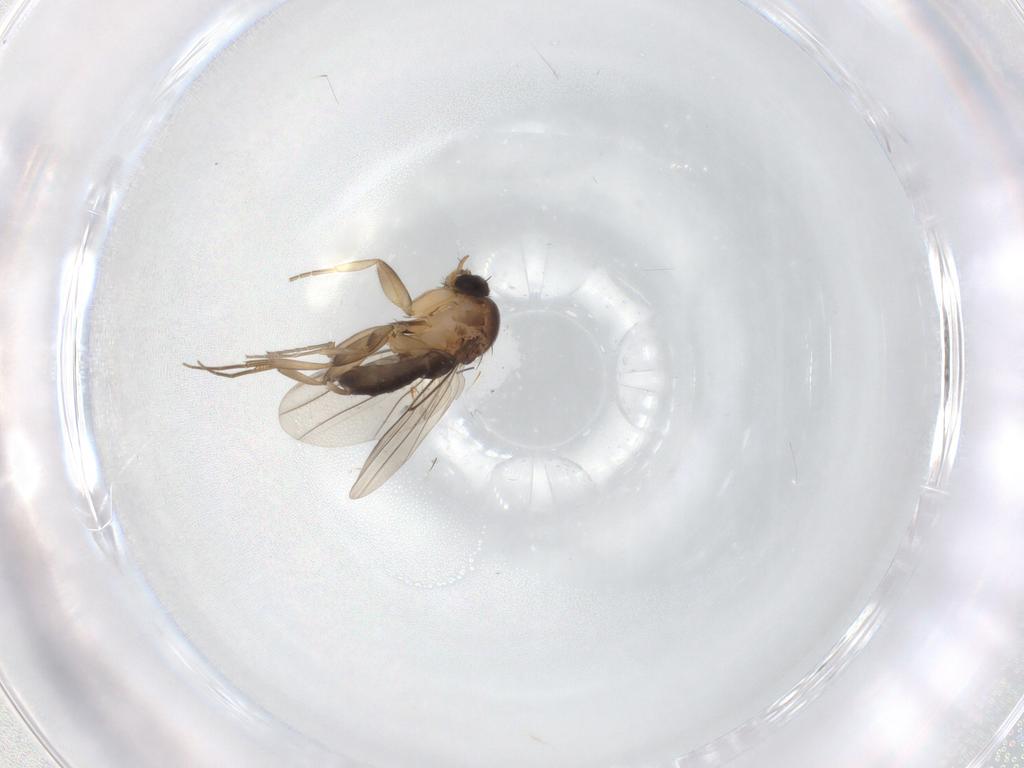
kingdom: Animalia
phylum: Arthropoda
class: Insecta
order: Diptera
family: Phoridae
